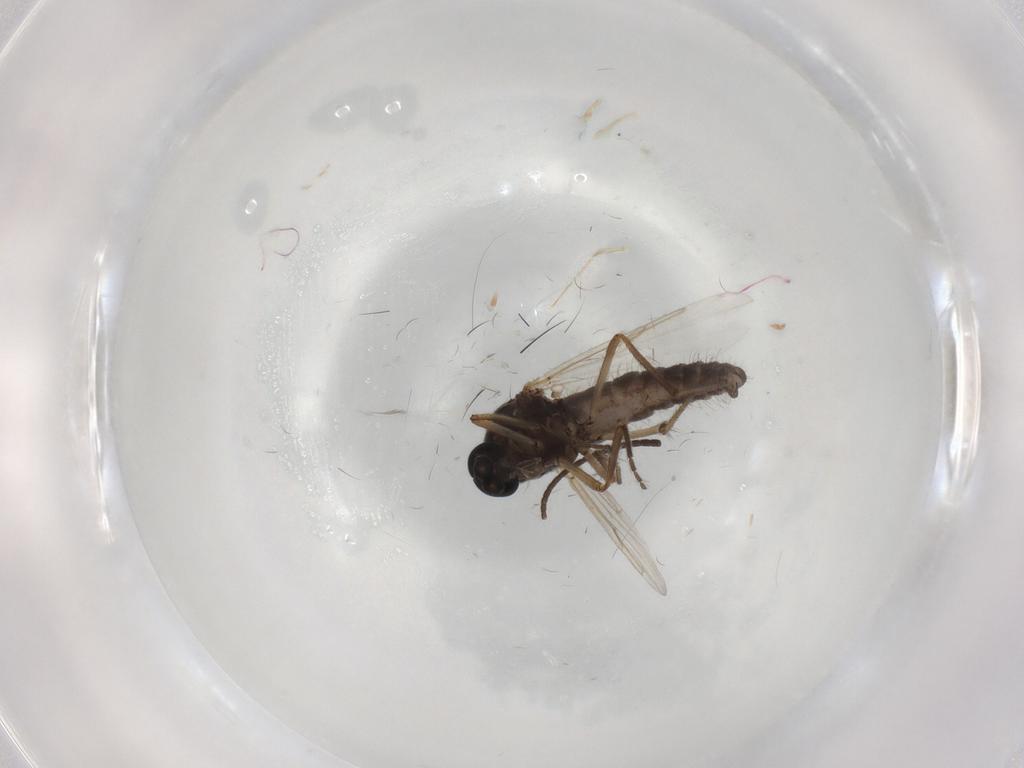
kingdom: Animalia
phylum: Arthropoda
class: Insecta
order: Diptera
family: Ceratopogonidae
